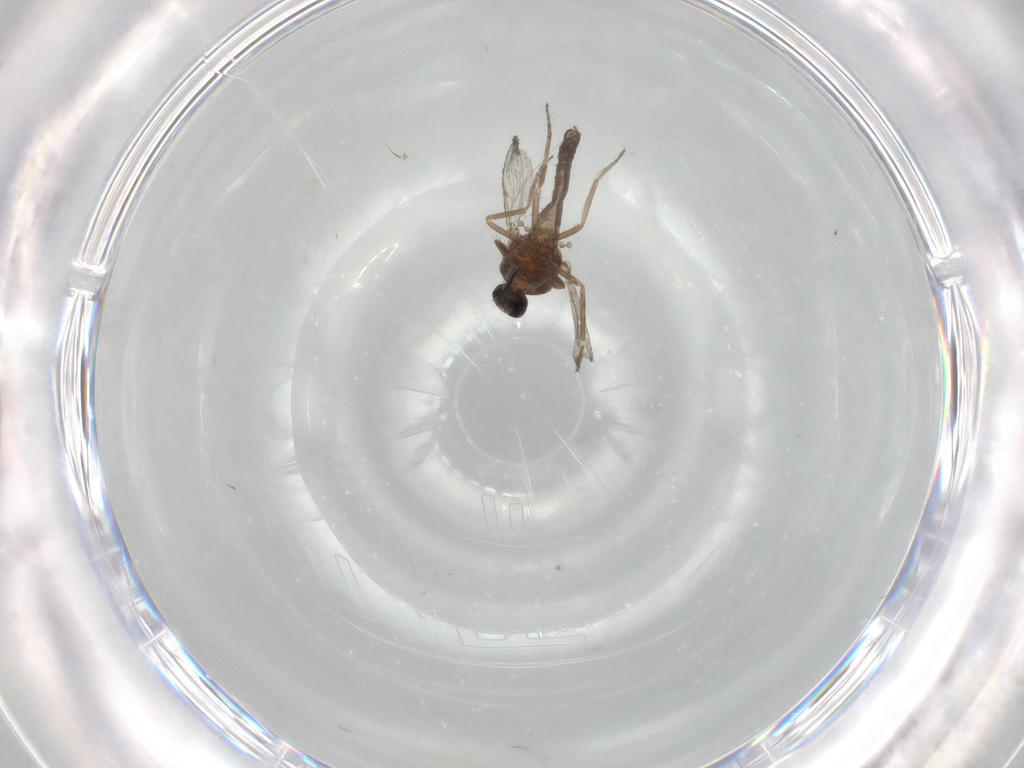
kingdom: Animalia
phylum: Arthropoda
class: Insecta
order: Diptera
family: Ceratopogonidae
